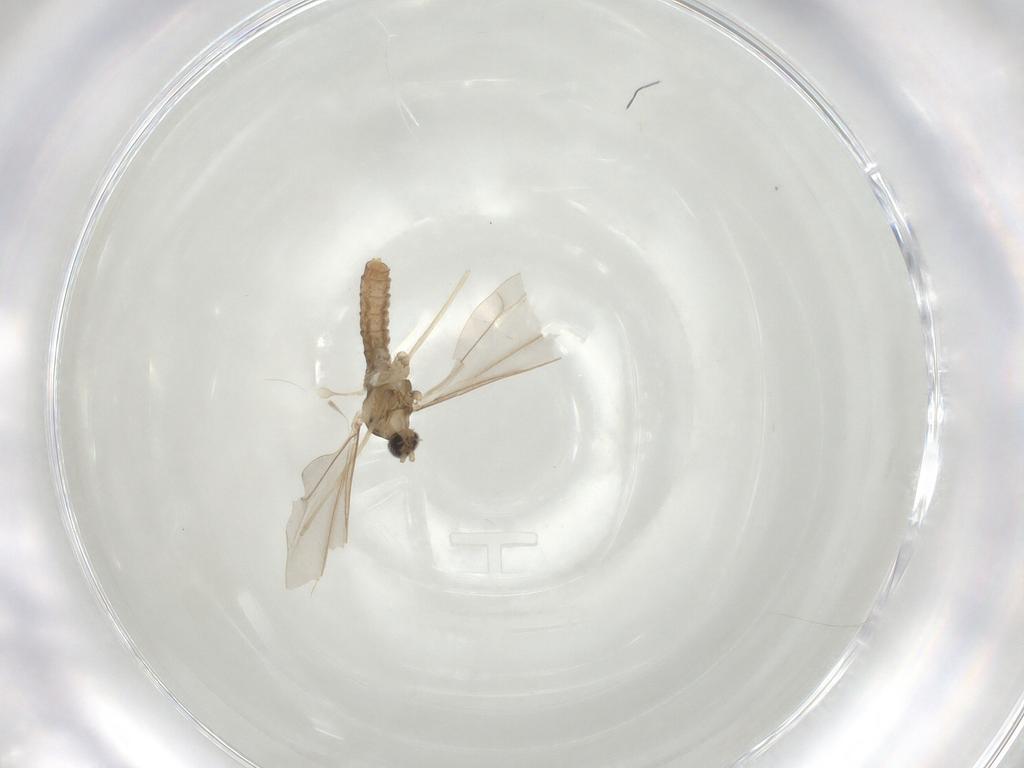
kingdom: Animalia
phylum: Arthropoda
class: Insecta
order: Diptera
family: Cecidomyiidae
